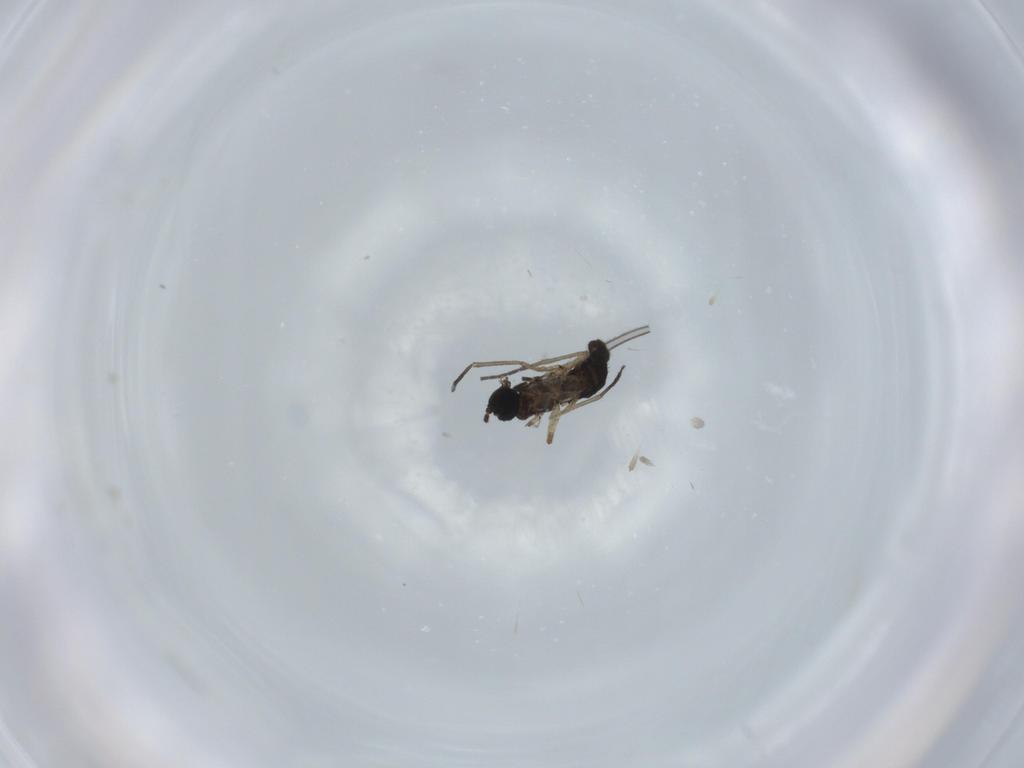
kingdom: Animalia
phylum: Arthropoda
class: Insecta
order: Diptera
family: Sciaridae
